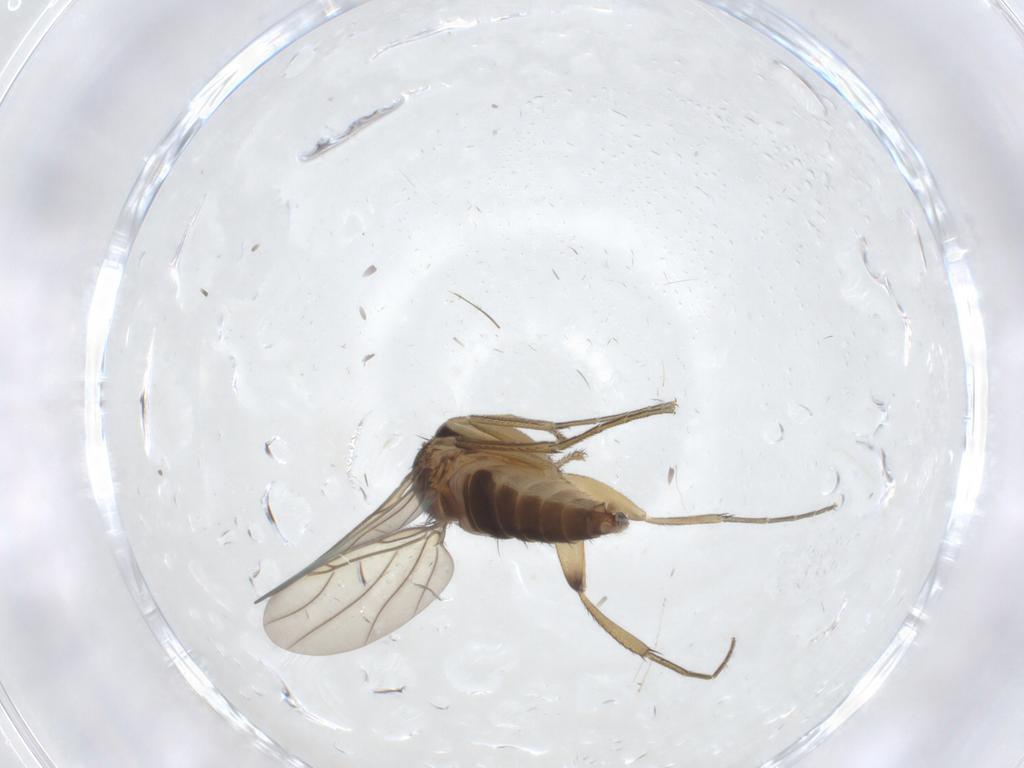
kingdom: Animalia
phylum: Arthropoda
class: Insecta
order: Diptera
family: Phoridae
